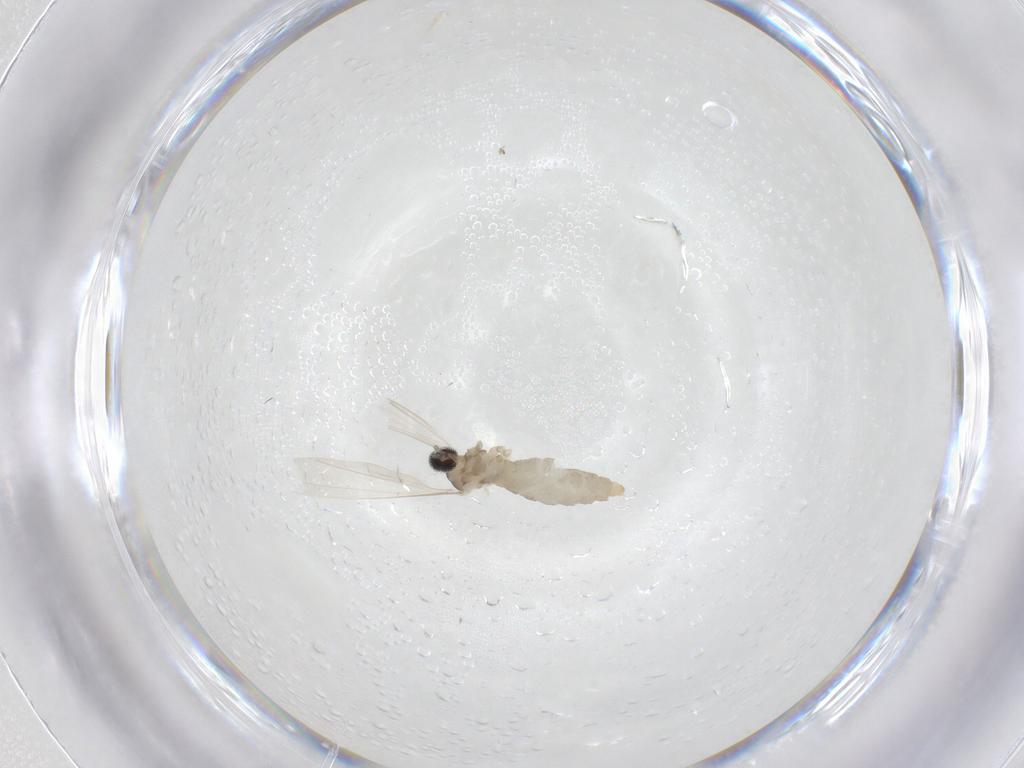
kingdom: Animalia
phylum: Arthropoda
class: Insecta
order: Diptera
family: Cecidomyiidae
